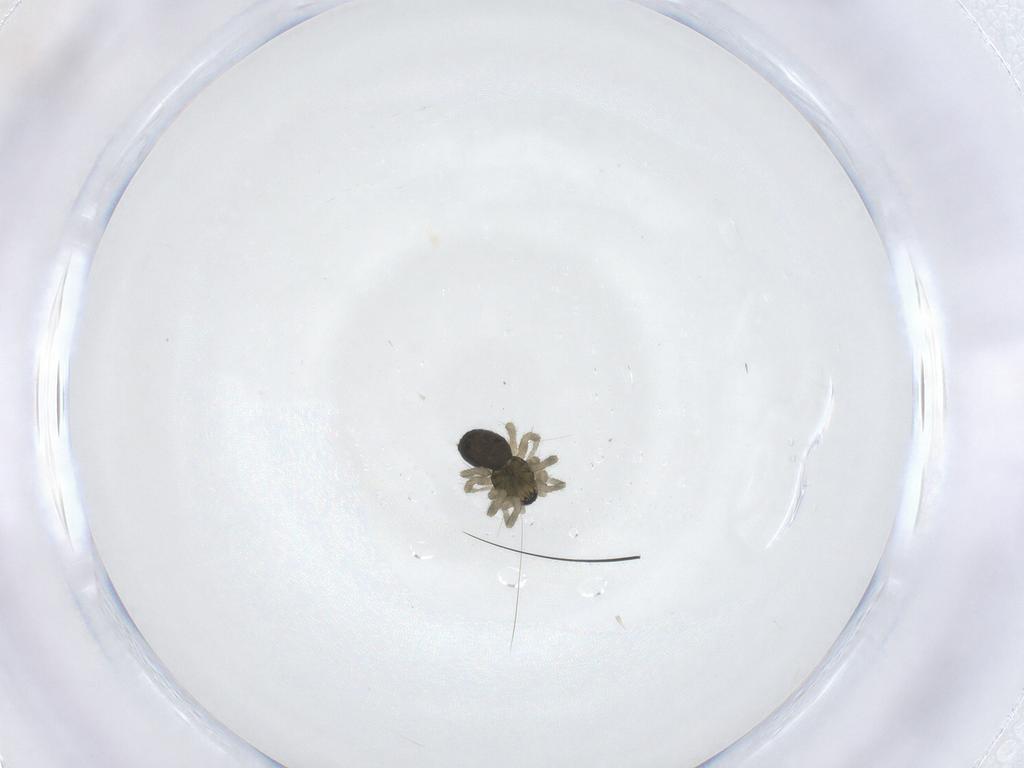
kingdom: Animalia
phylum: Arthropoda
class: Arachnida
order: Araneae
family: Linyphiidae
